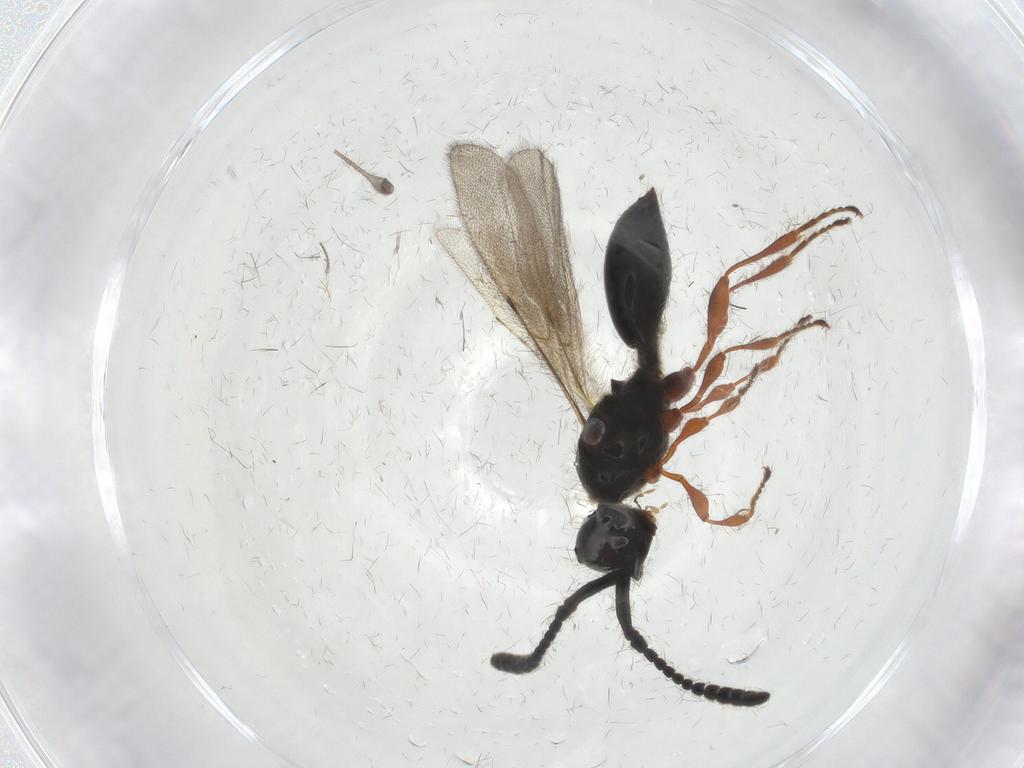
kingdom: Animalia
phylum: Arthropoda
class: Insecta
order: Hymenoptera
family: Diapriidae
